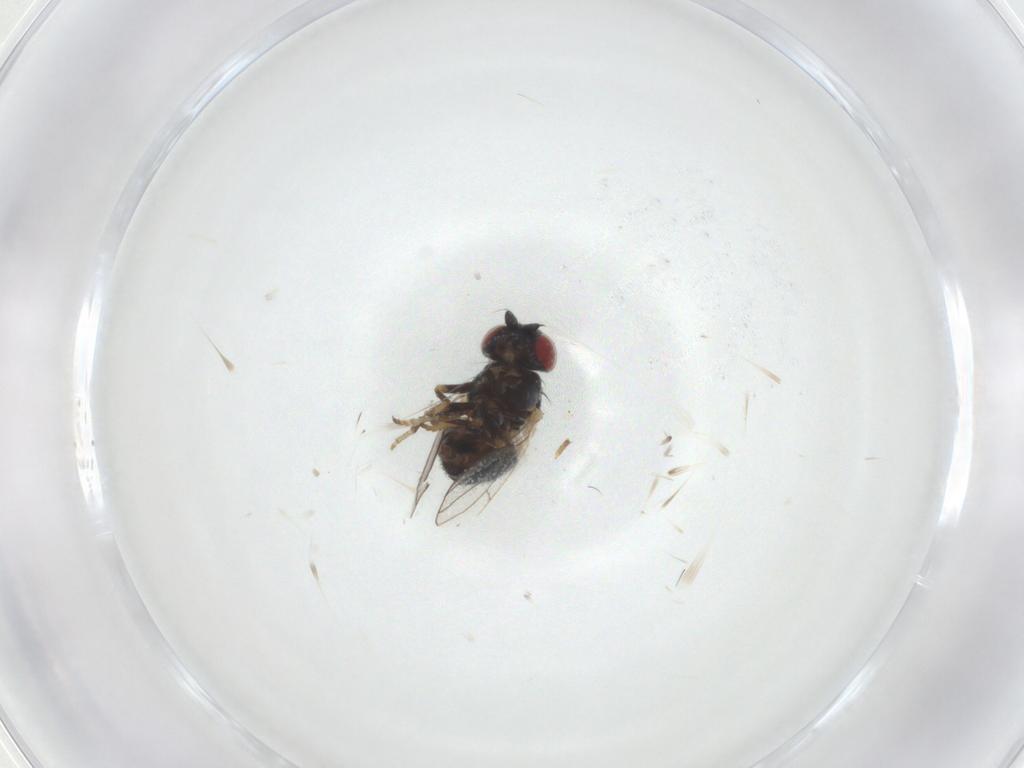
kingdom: Animalia
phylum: Arthropoda
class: Insecta
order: Diptera
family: Chamaemyiidae
